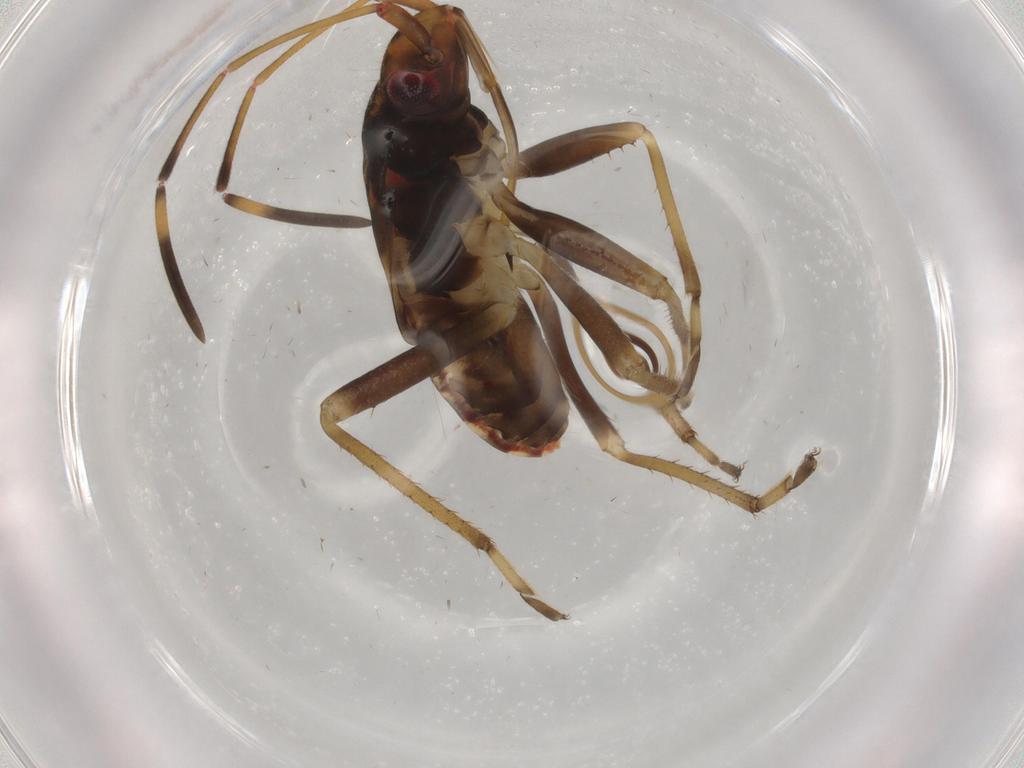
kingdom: Animalia
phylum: Arthropoda
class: Insecta
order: Hemiptera
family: Rhyparochromidae
